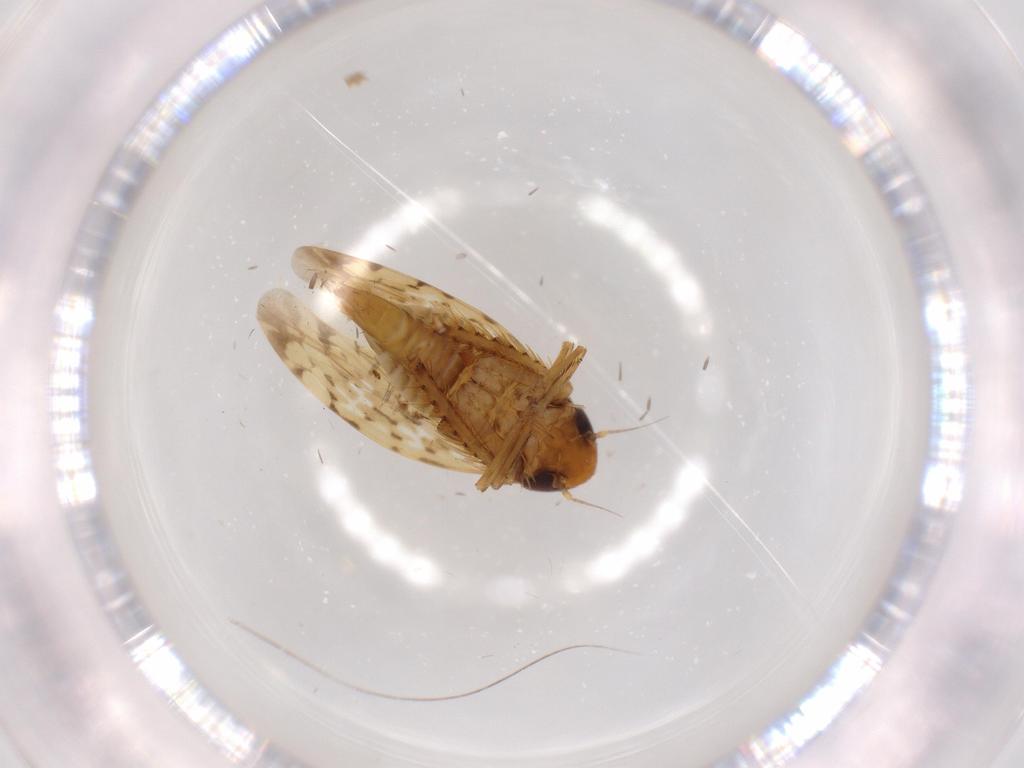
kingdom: Animalia
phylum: Arthropoda
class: Insecta
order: Hemiptera
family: Cicadellidae
